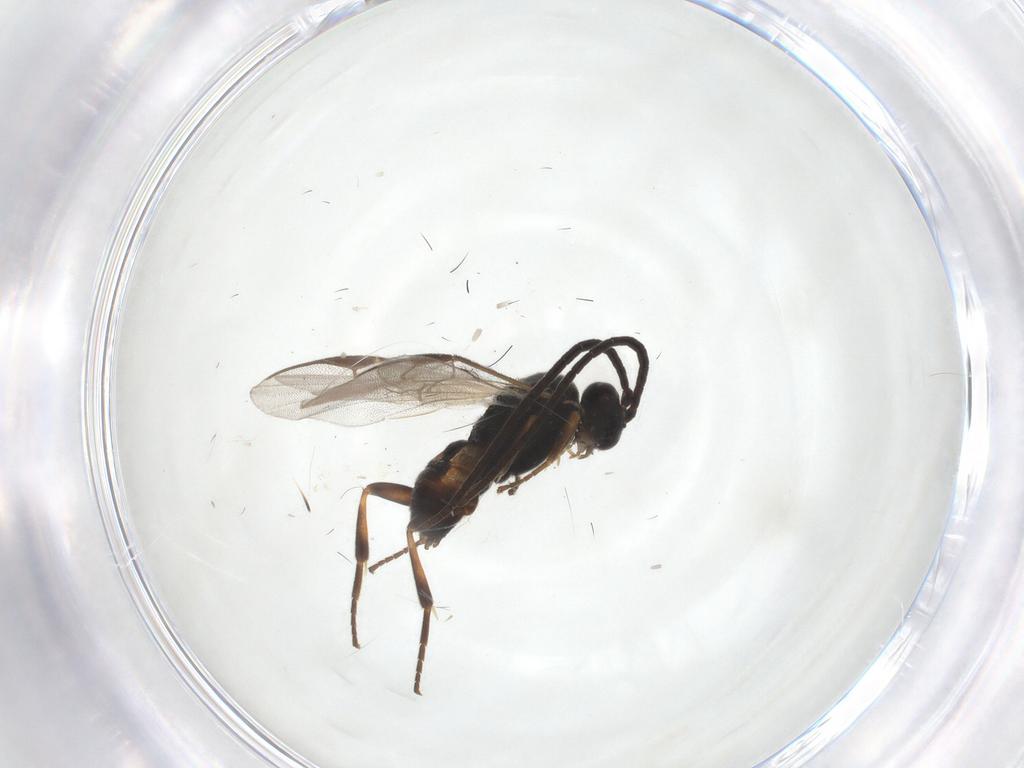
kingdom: Animalia
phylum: Arthropoda
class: Insecta
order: Hymenoptera
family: Braconidae
